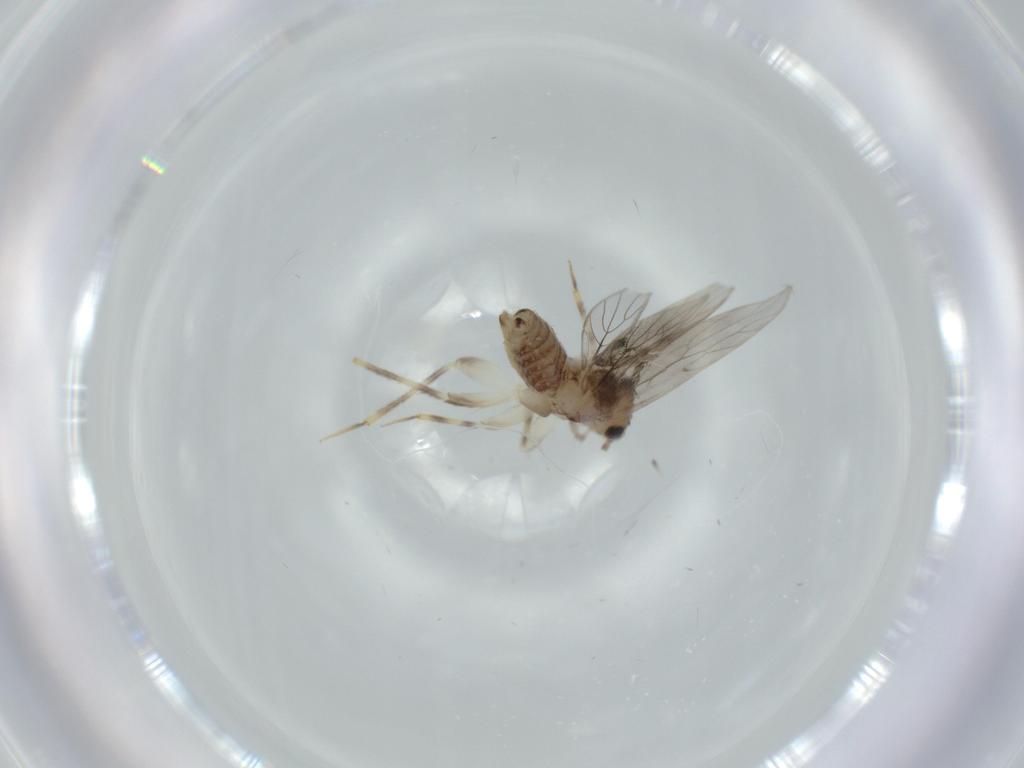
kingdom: Animalia
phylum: Arthropoda
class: Insecta
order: Psocodea
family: Lepidopsocidae
